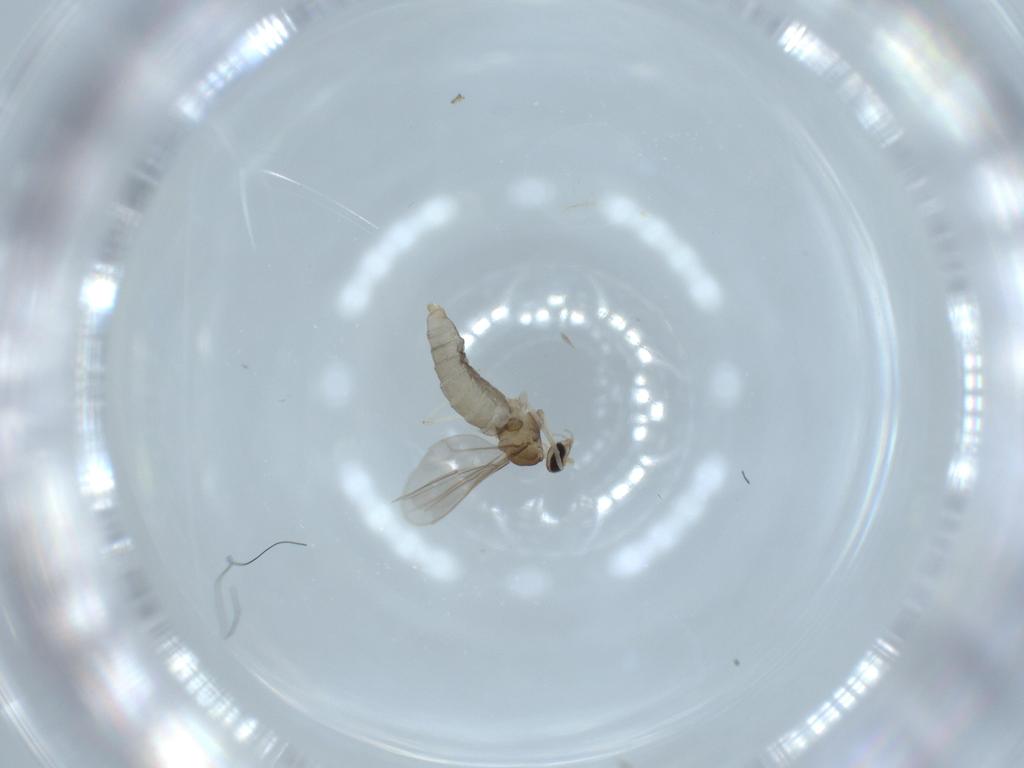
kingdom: Animalia
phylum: Arthropoda
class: Insecta
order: Diptera
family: Cecidomyiidae
